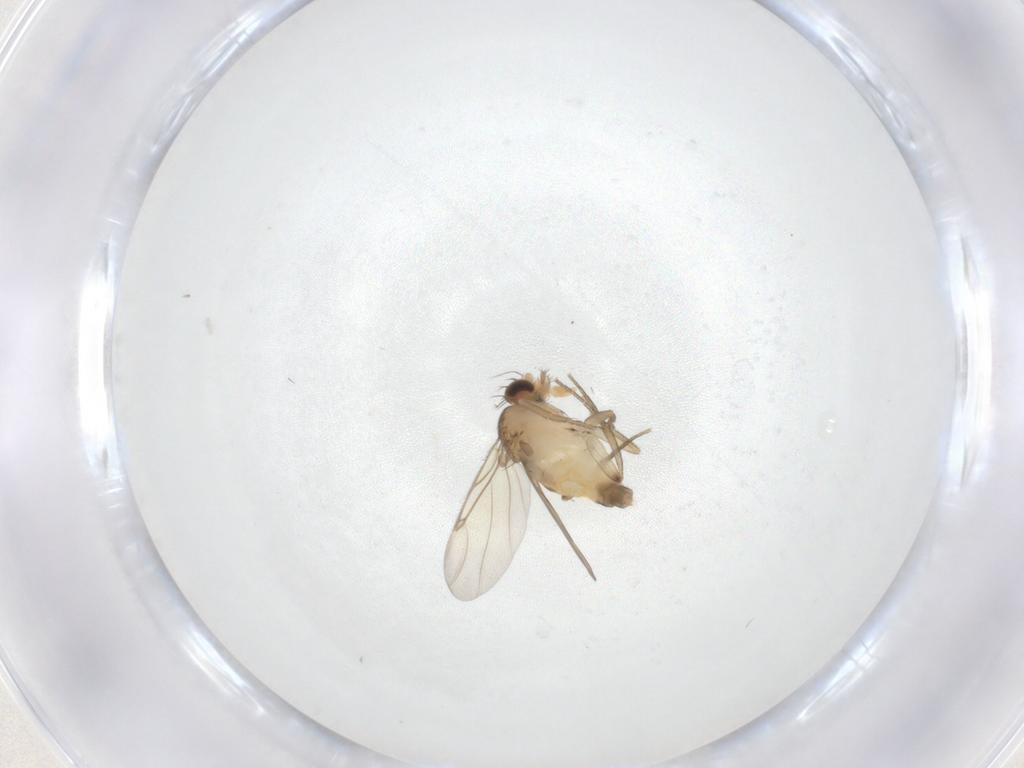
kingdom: Animalia
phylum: Arthropoda
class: Insecta
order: Diptera
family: Phoridae
